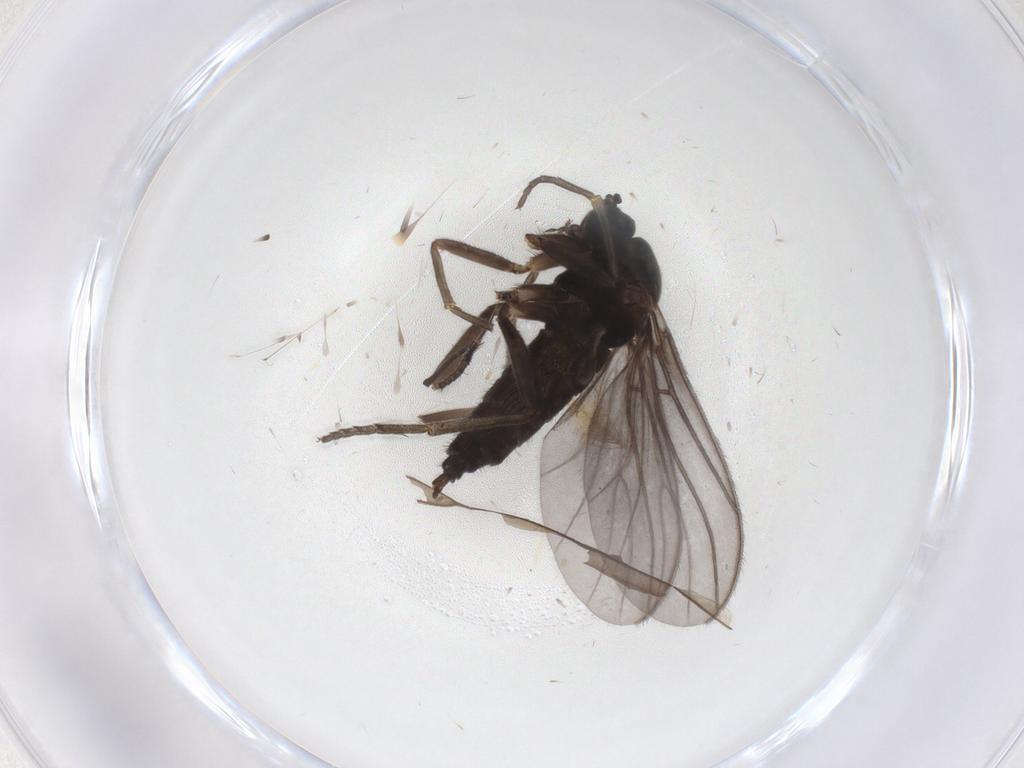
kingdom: Animalia
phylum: Arthropoda
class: Insecta
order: Diptera
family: Sciaridae
